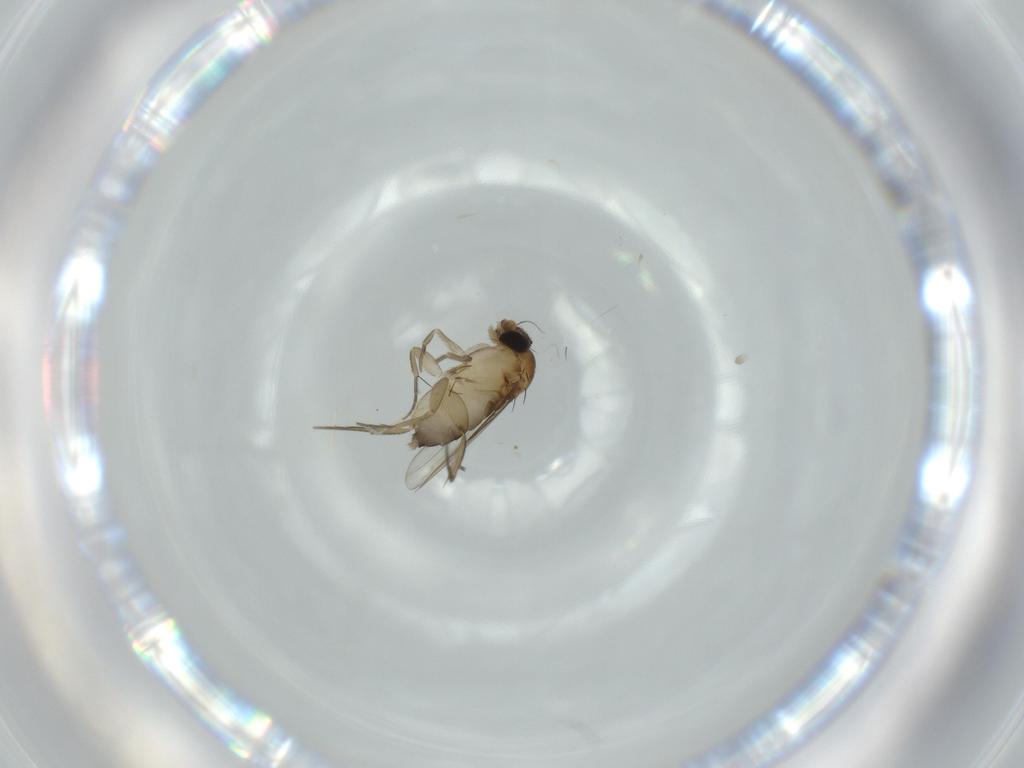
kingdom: Animalia
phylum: Arthropoda
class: Insecta
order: Diptera
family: Phoridae
